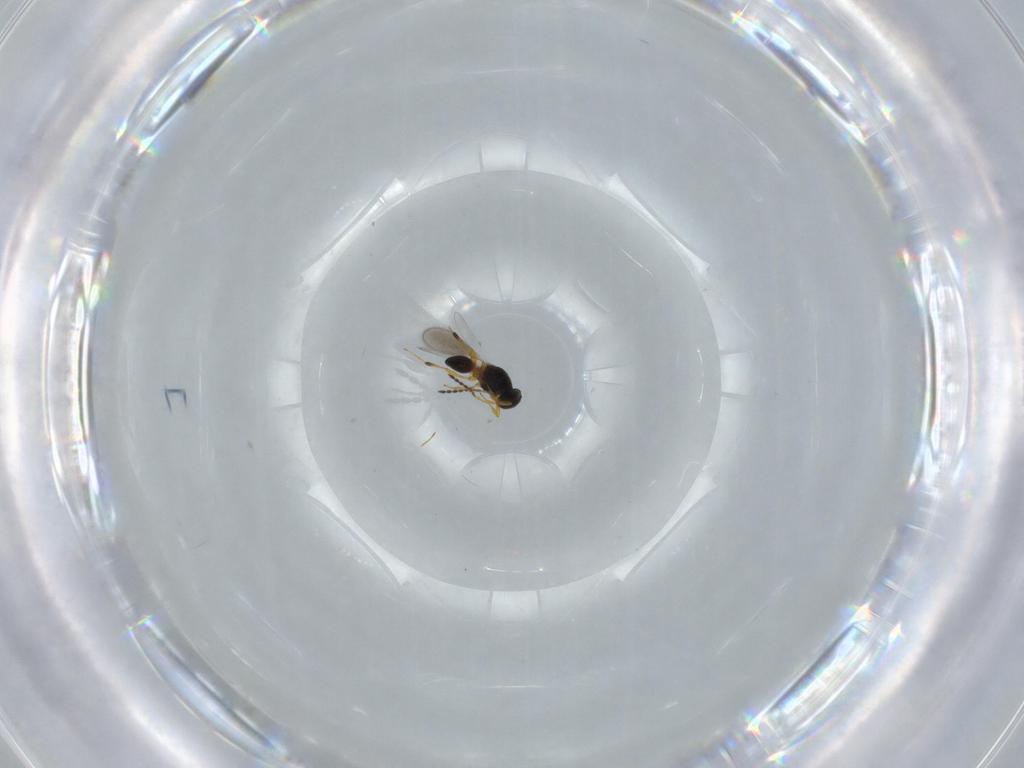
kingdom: Animalia
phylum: Arthropoda
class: Insecta
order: Hymenoptera
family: Platygastridae
